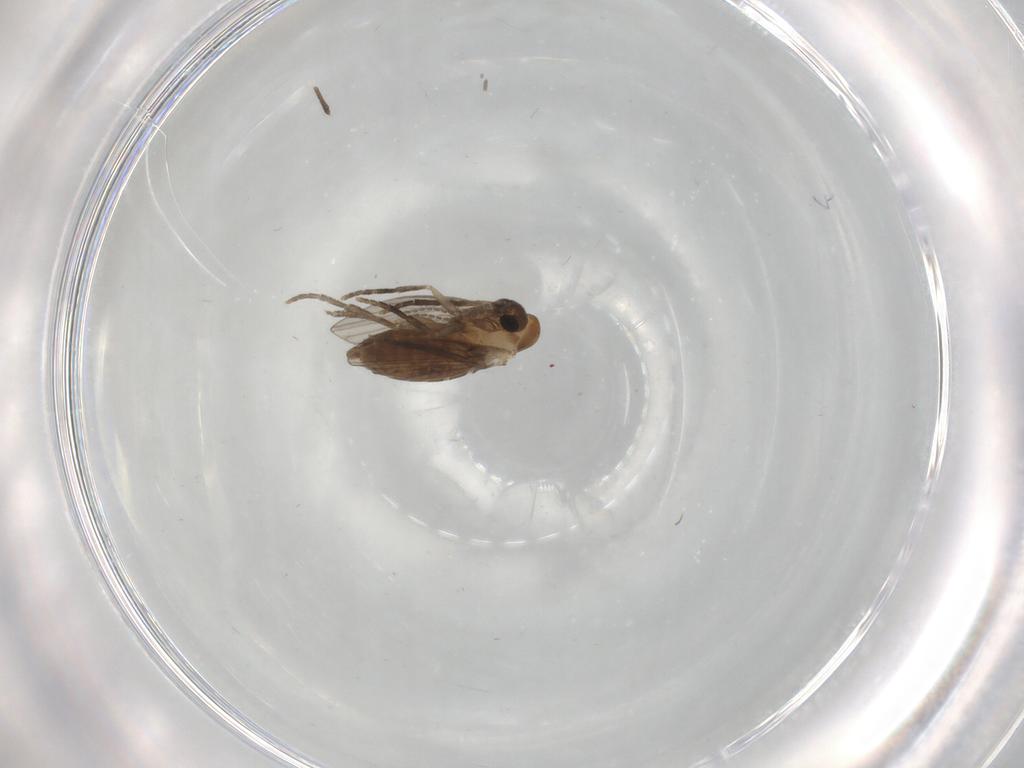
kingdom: Animalia
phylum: Arthropoda
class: Insecta
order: Diptera
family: Psychodidae
